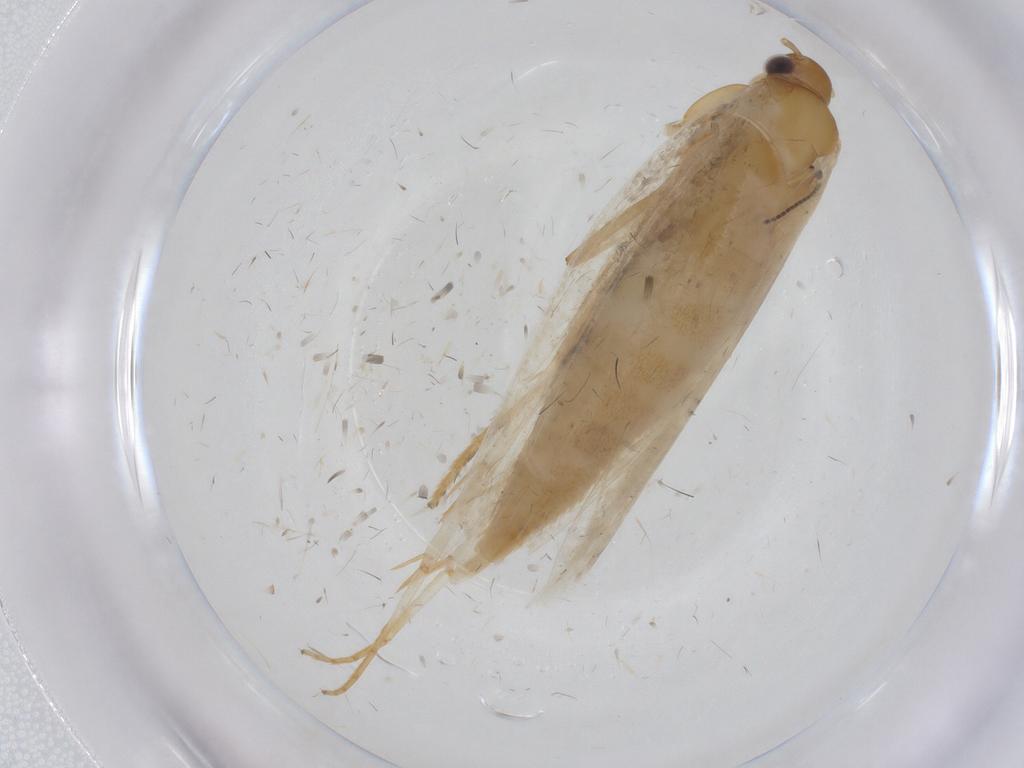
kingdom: Animalia
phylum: Arthropoda
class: Insecta
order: Lepidoptera
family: Oecophoridae
